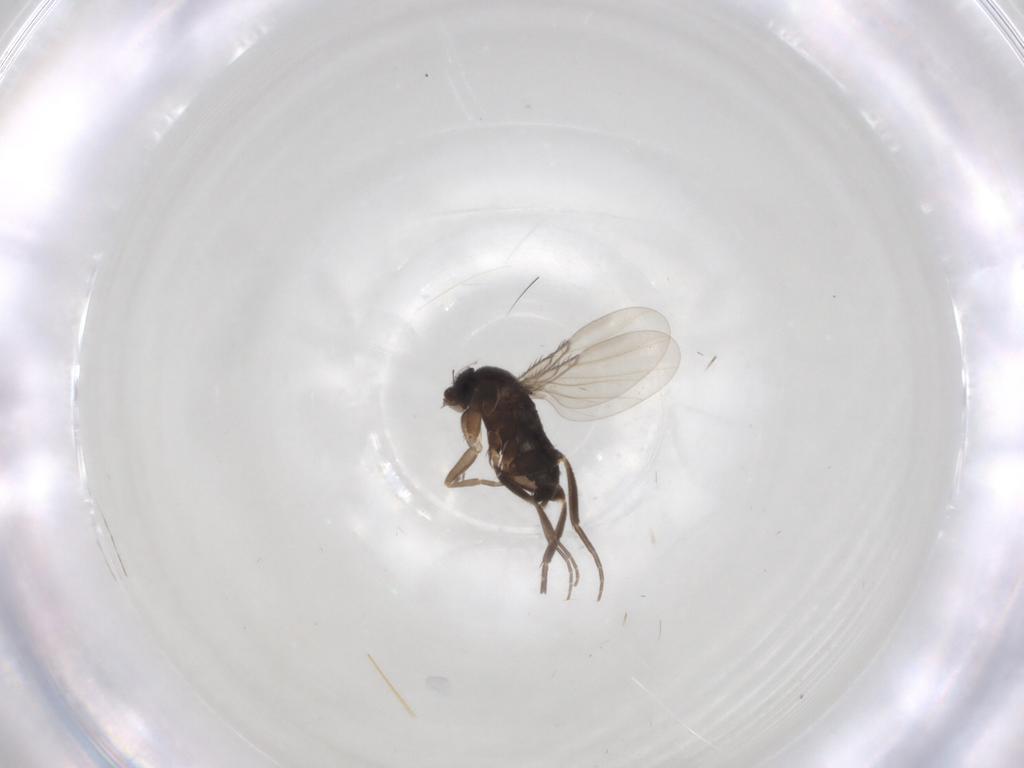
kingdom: Animalia
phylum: Arthropoda
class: Insecta
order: Diptera
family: Phoridae
